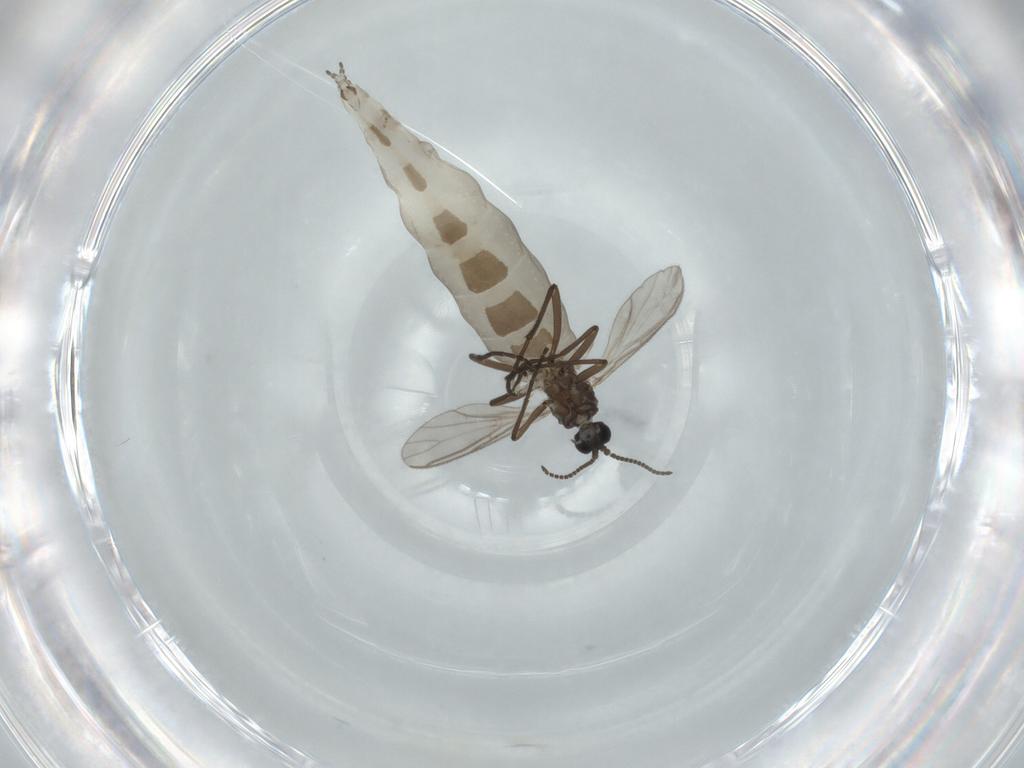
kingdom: Animalia
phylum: Arthropoda
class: Insecta
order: Diptera
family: Sciaridae
